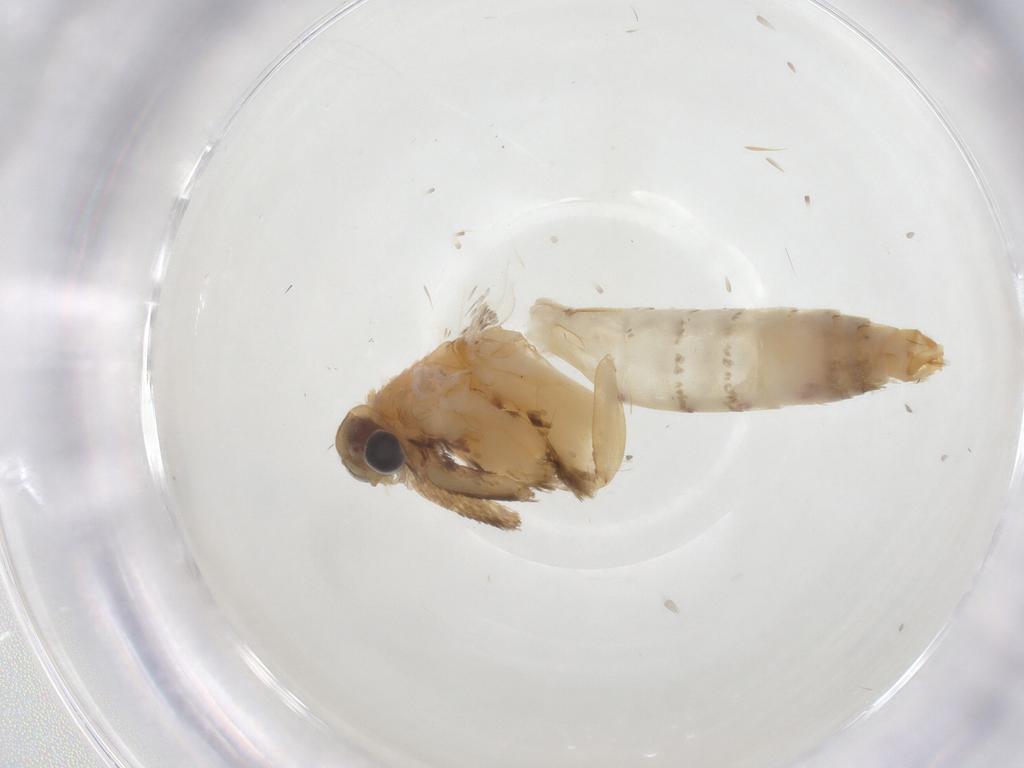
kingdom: Animalia
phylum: Arthropoda
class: Insecta
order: Lepidoptera
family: Tineidae
